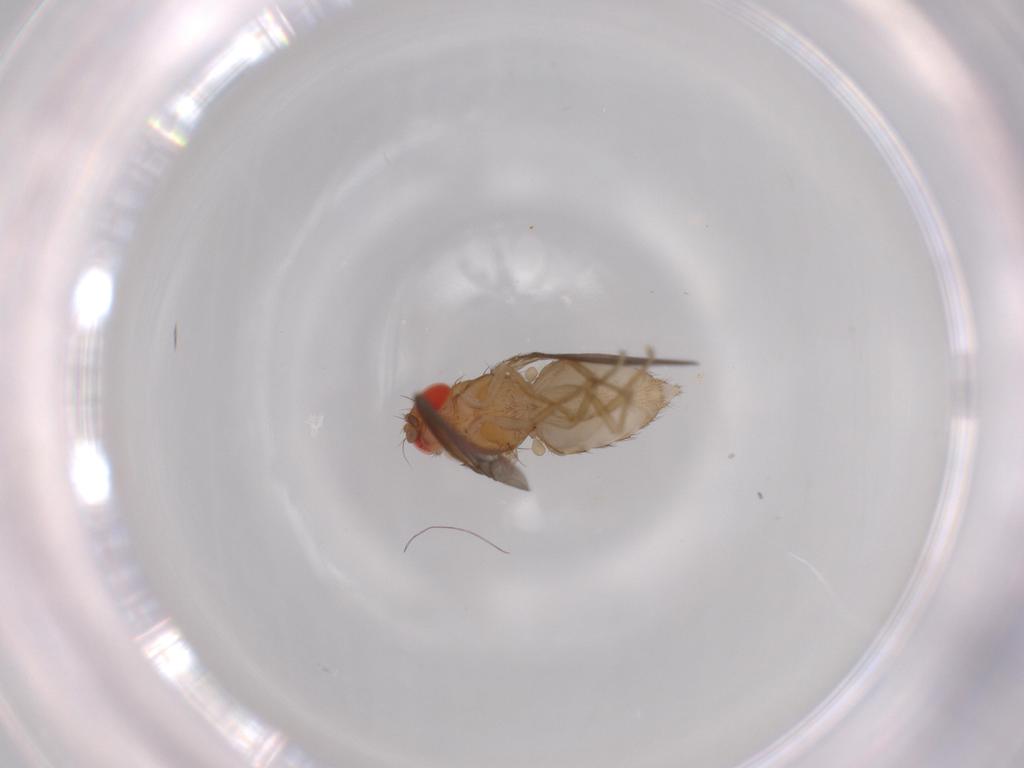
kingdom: Animalia
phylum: Arthropoda
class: Insecta
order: Diptera
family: Drosophilidae
